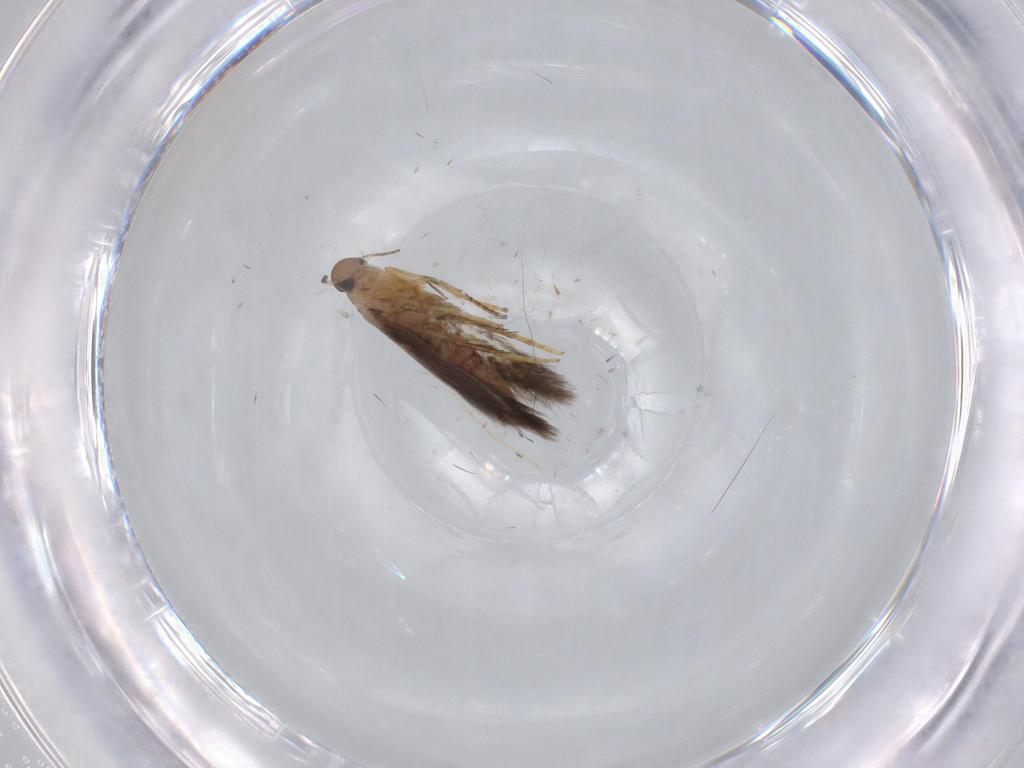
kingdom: Animalia
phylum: Arthropoda
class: Insecta
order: Lepidoptera
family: Heliozelidae
